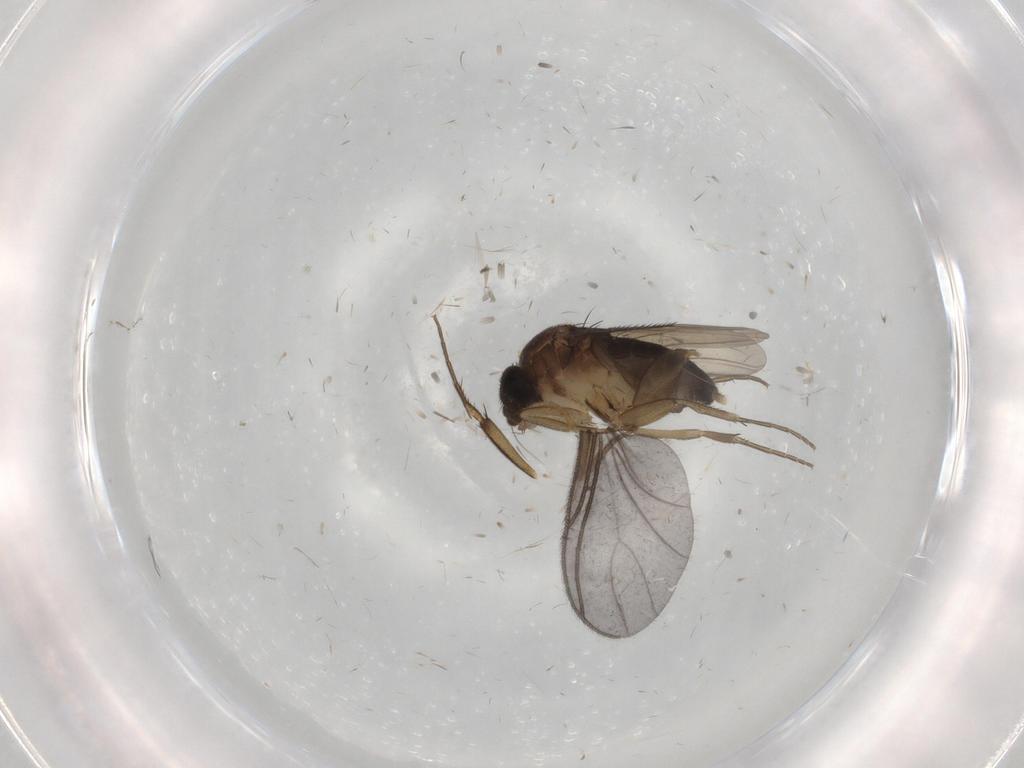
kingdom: Animalia
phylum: Arthropoda
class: Insecta
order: Diptera
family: Phoridae
